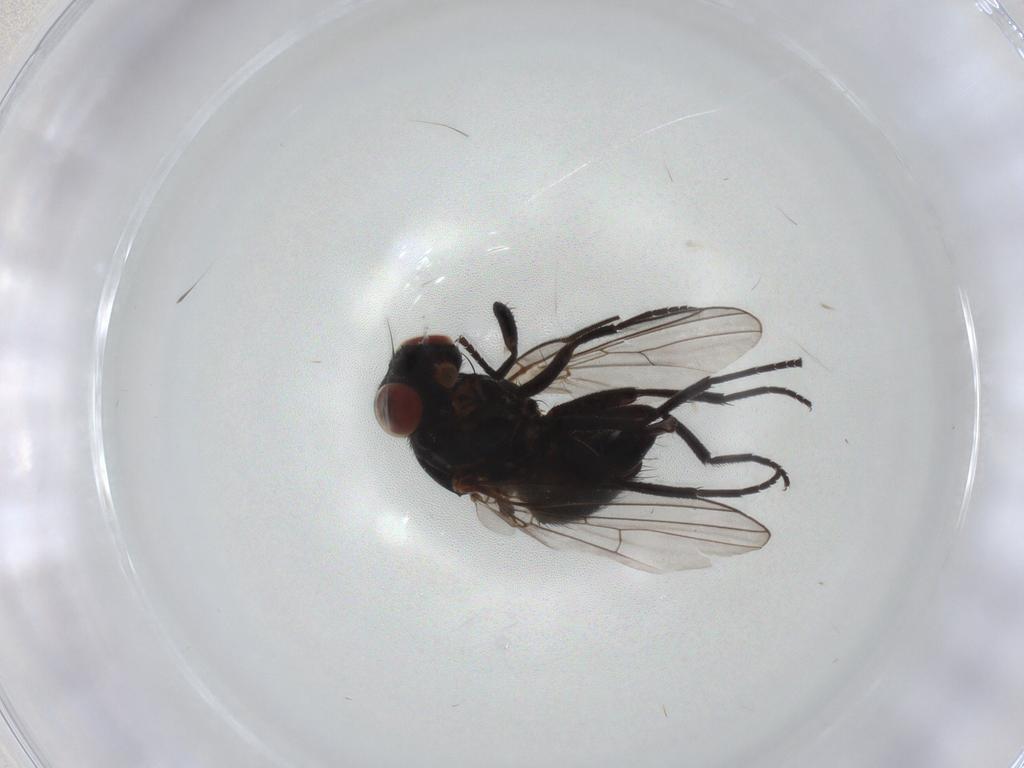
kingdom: Animalia
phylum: Arthropoda
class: Insecta
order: Diptera
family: Agromyzidae
